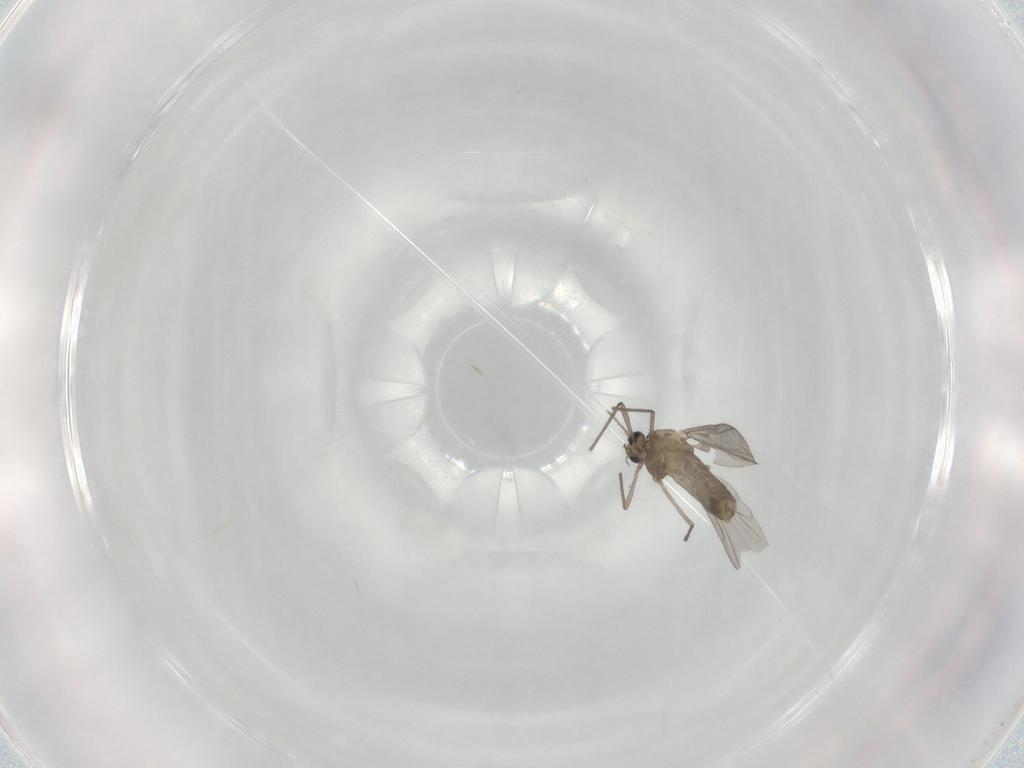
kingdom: Animalia
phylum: Arthropoda
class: Insecta
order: Diptera
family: Chironomidae
